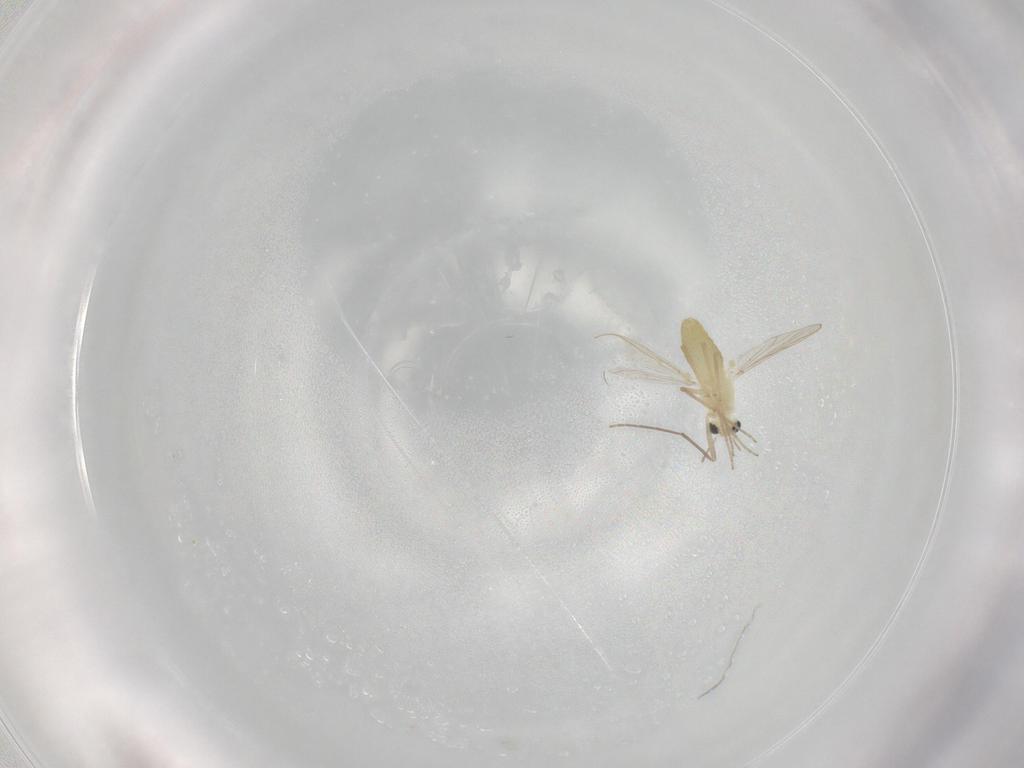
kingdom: Animalia
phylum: Arthropoda
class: Insecta
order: Diptera
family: Chironomidae
